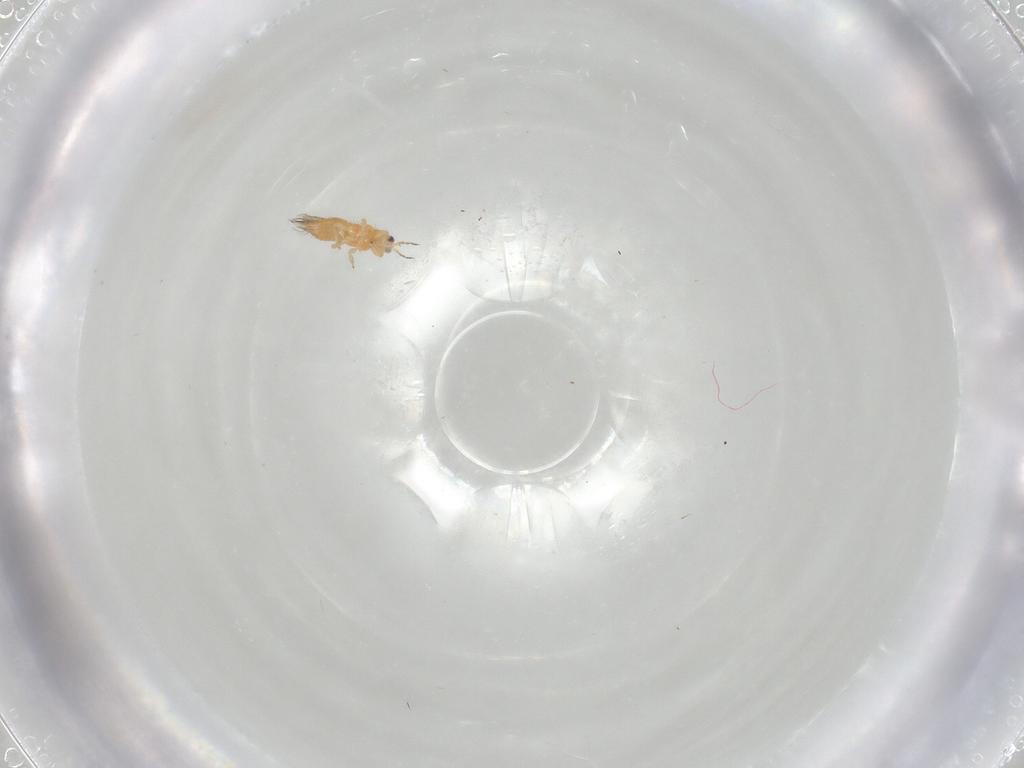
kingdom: Animalia
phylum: Arthropoda
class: Insecta
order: Thysanoptera
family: Thripidae
